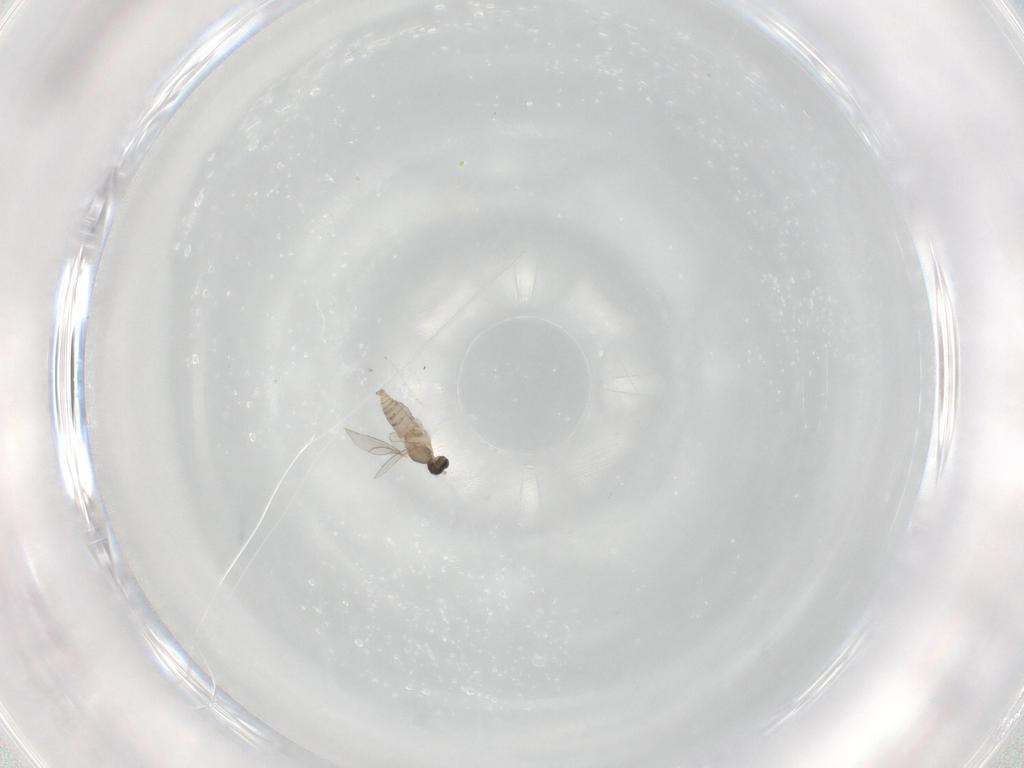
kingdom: Animalia
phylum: Arthropoda
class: Insecta
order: Diptera
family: Cecidomyiidae
